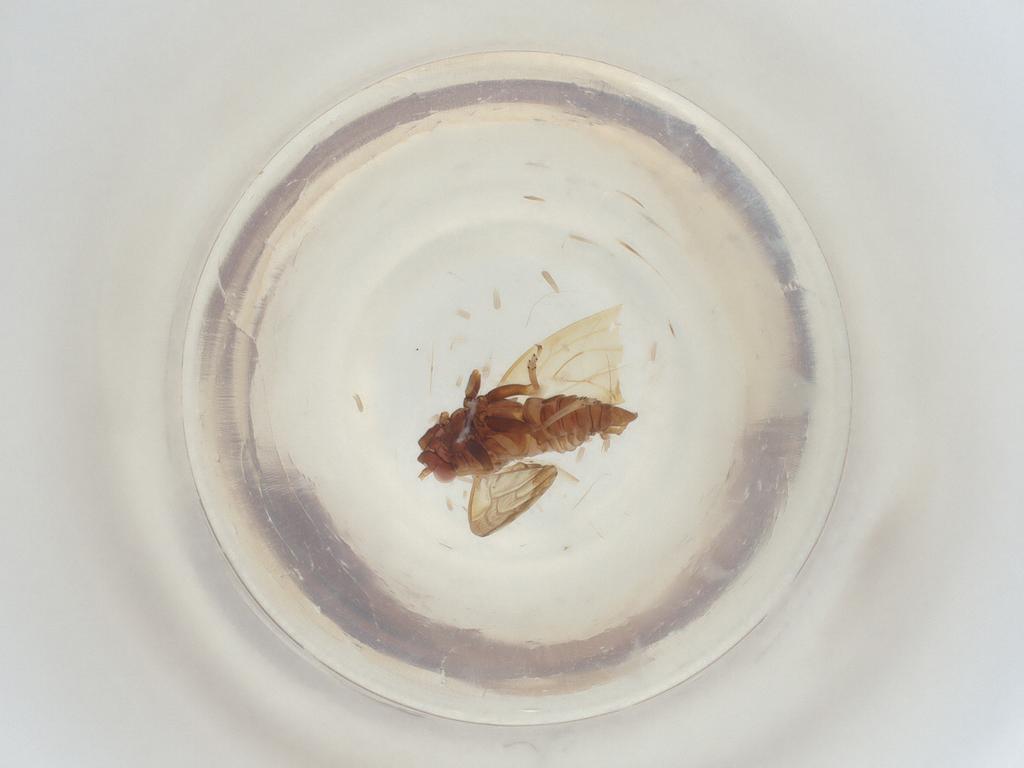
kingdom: Animalia
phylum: Arthropoda
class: Insecta
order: Hemiptera
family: Psyllidae
